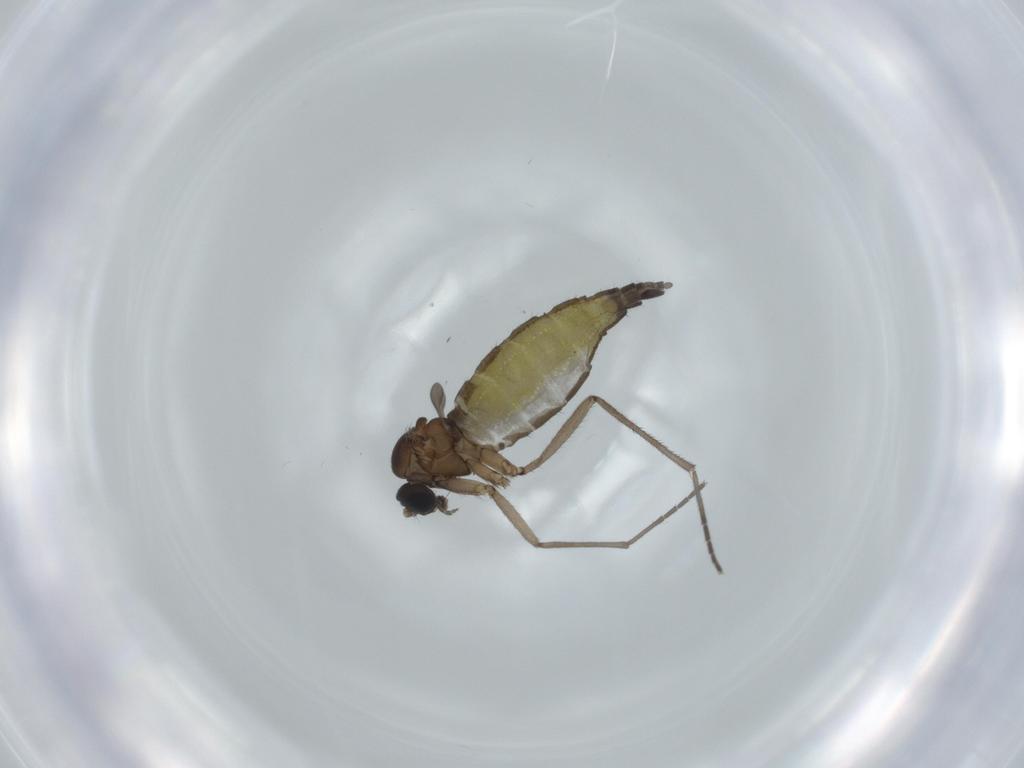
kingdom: Animalia
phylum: Arthropoda
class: Insecta
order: Diptera
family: Sciaridae
